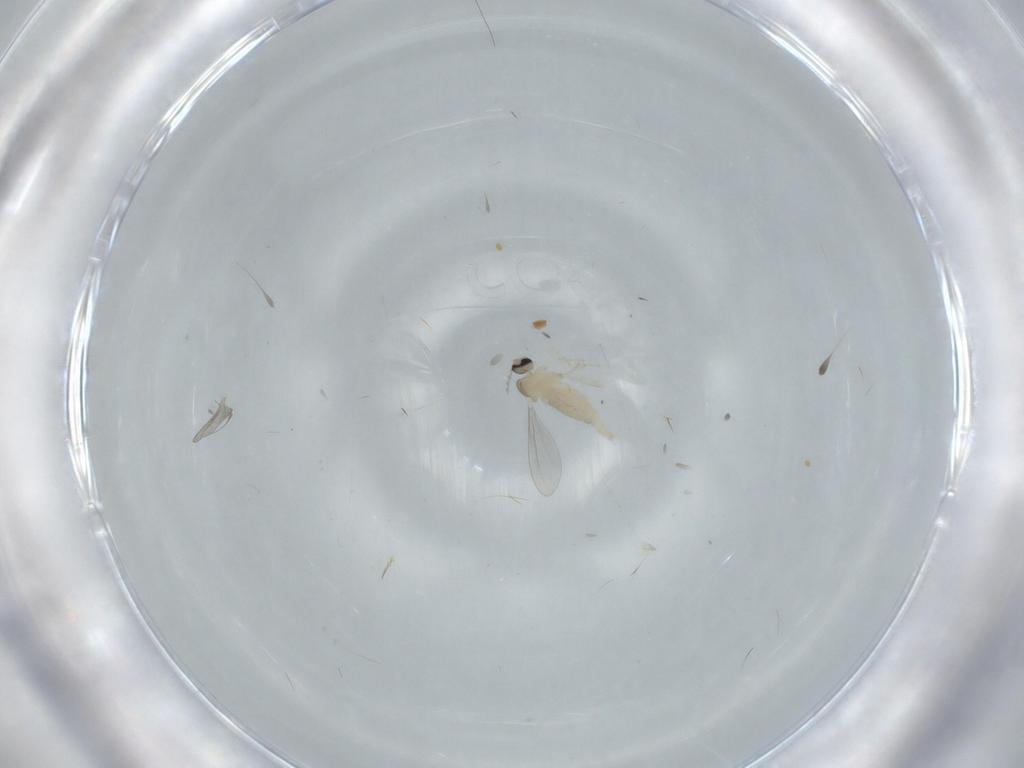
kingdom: Animalia
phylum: Arthropoda
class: Insecta
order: Diptera
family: Cecidomyiidae
